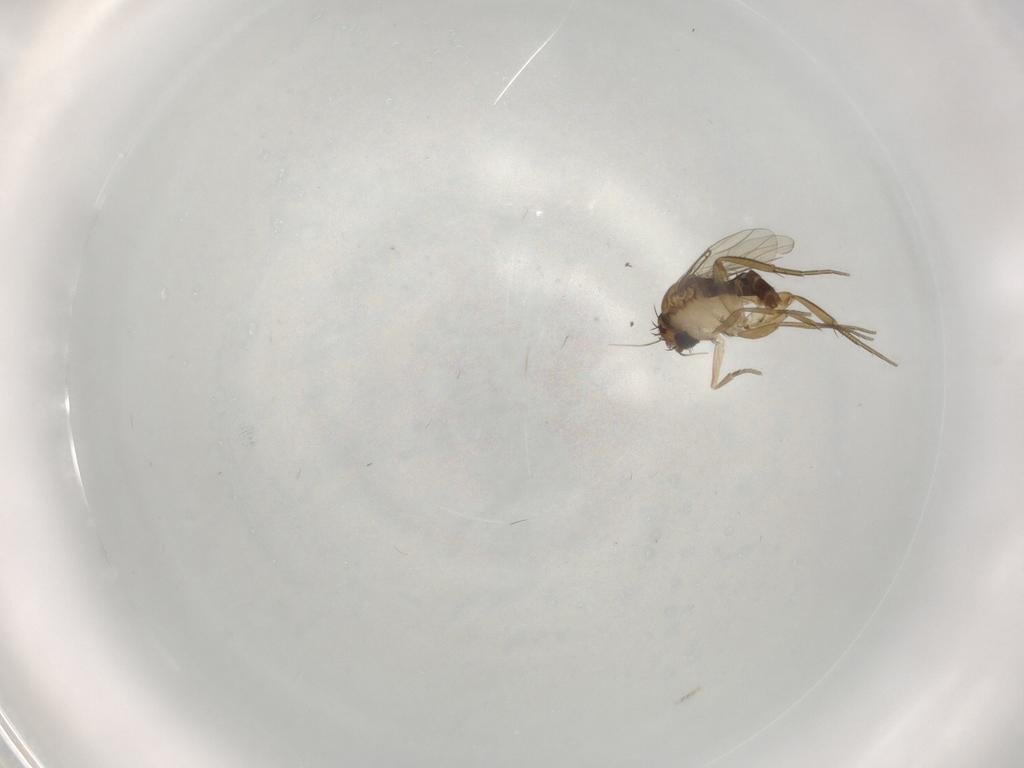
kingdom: Animalia
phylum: Arthropoda
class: Insecta
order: Diptera
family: Phoridae
